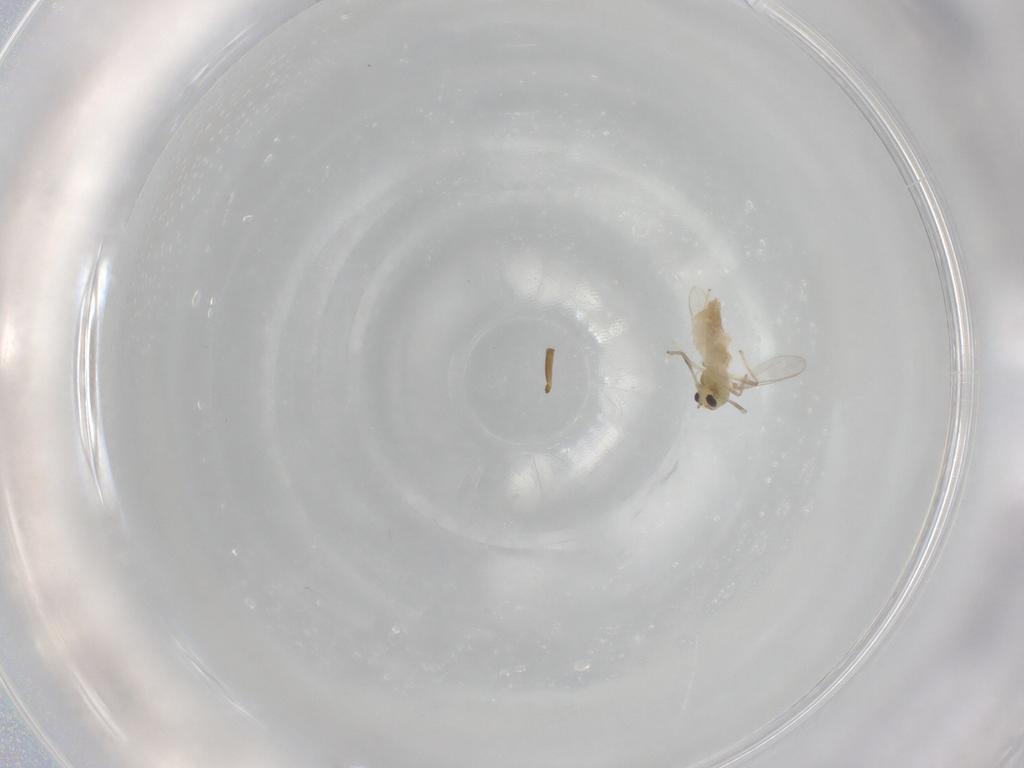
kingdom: Animalia
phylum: Arthropoda
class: Insecta
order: Diptera
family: Chironomidae
